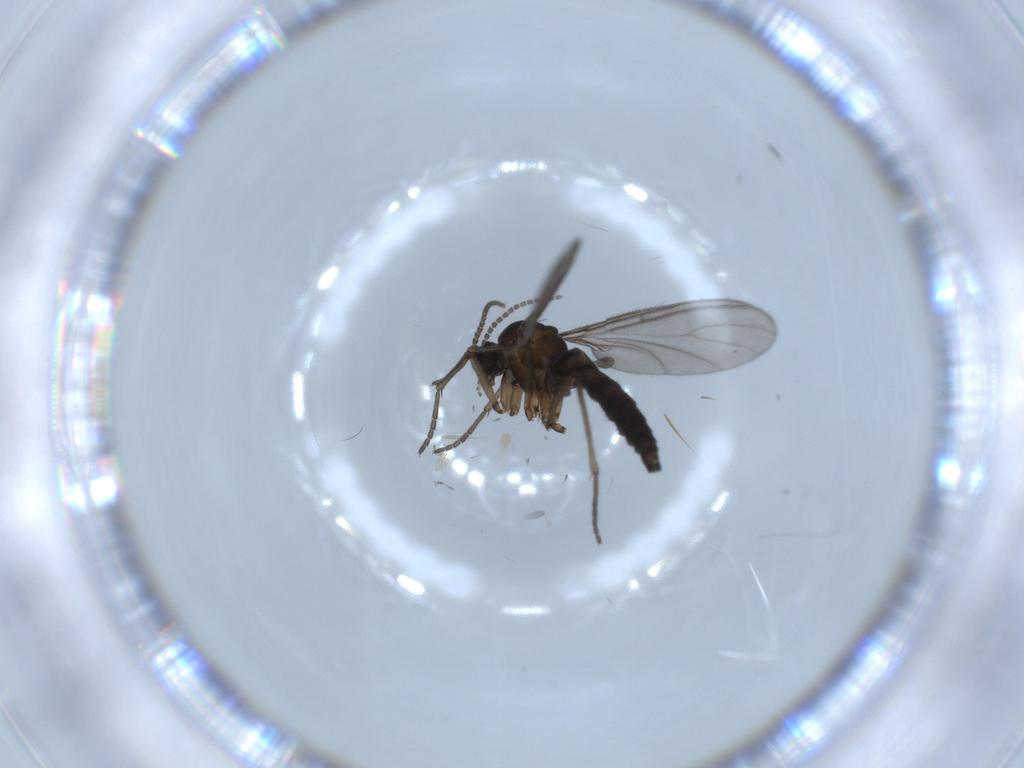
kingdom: Animalia
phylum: Arthropoda
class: Insecta
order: Diptera
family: Sciaridae
